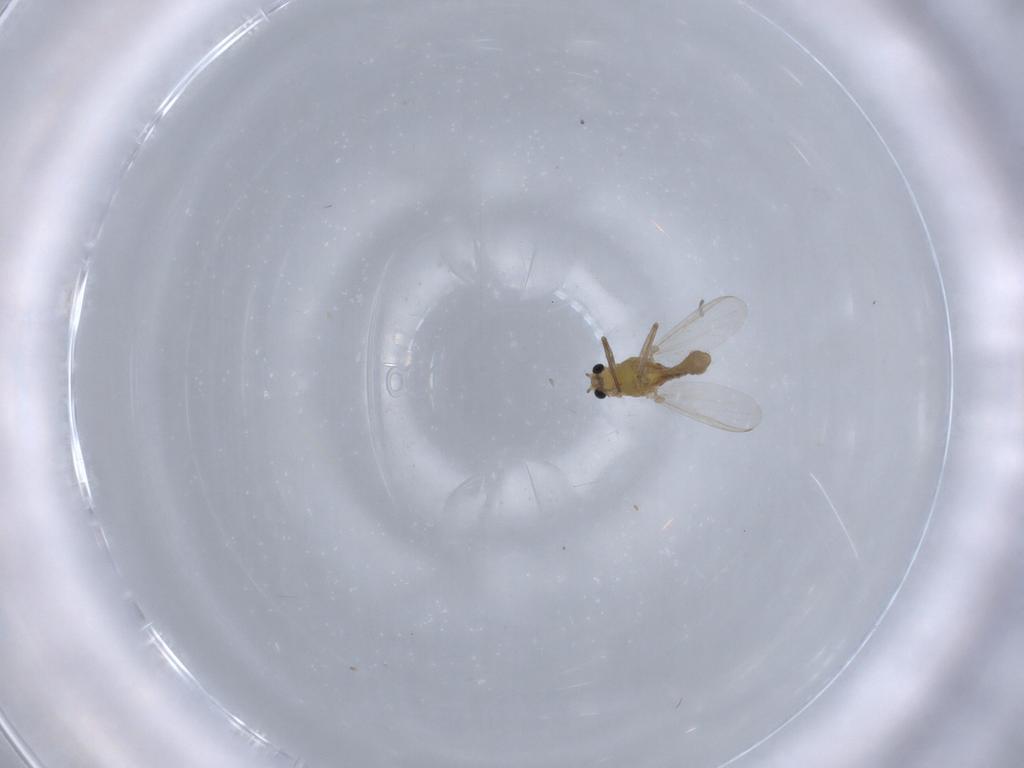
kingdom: Animalia
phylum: Arthropoda
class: Insecta
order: Diptera
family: Chironomidae
